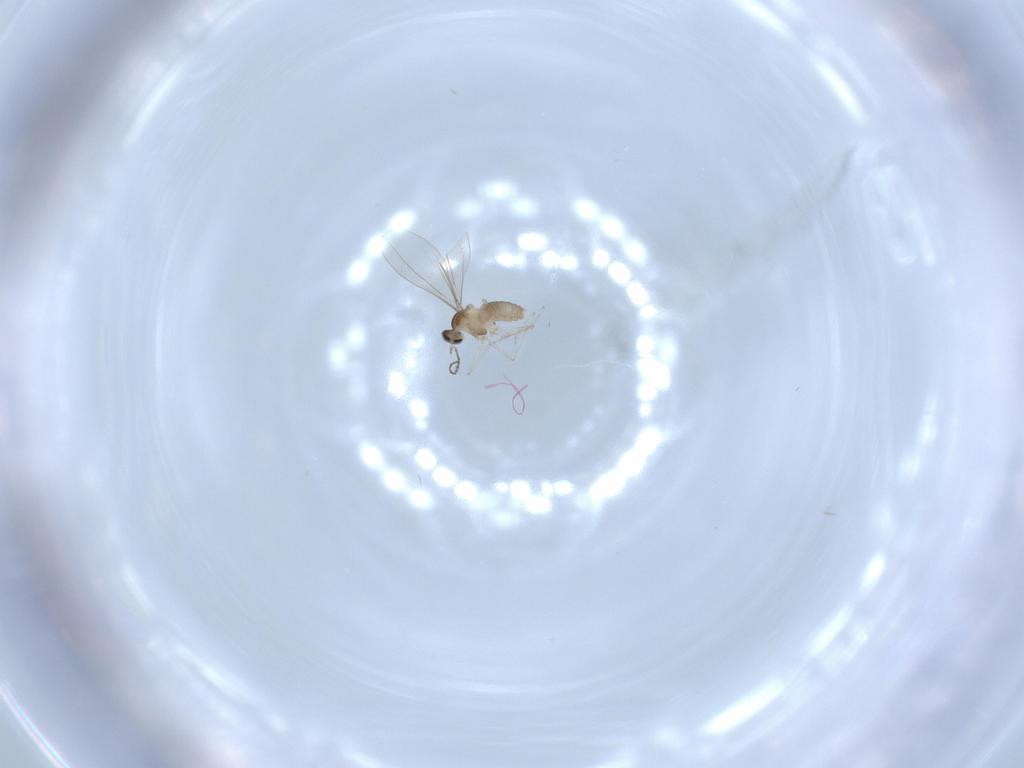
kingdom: Animalia
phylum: Arthropoda
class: Insecta
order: Diptera
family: Cecidomyiidae
